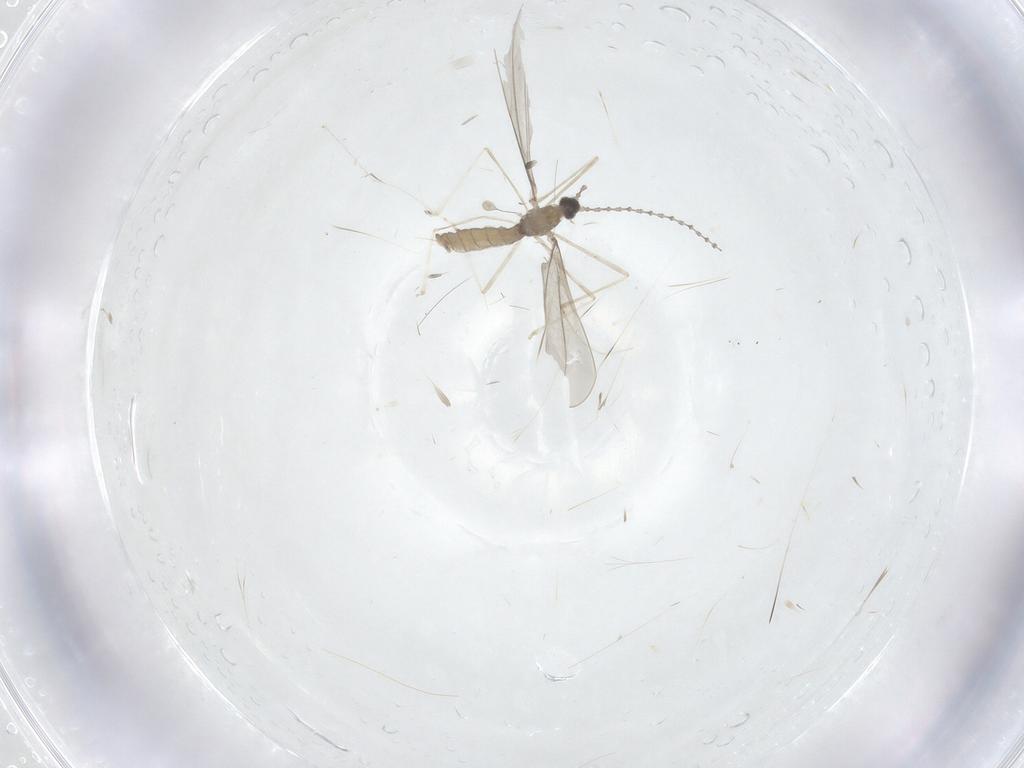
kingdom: Animalia
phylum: Arthropoda
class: Insecta
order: Diptera
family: Cecidomyiidae
